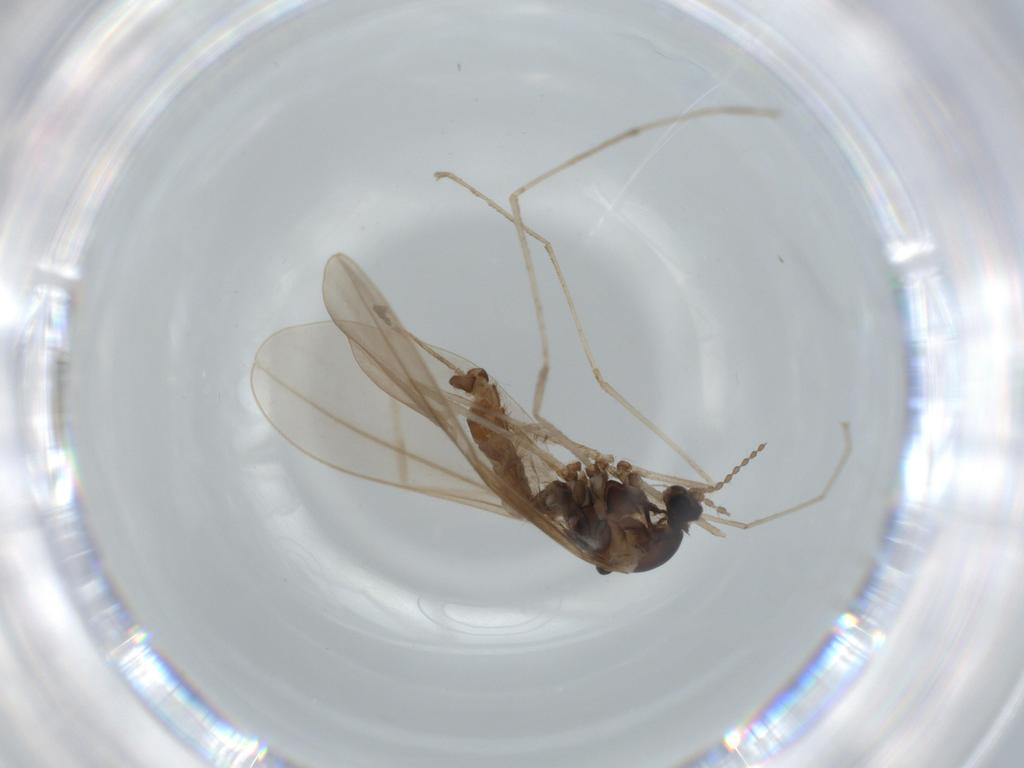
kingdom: Animalia
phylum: Arthropoda
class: Insecta
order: Diptera
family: Cecidomyiidae
